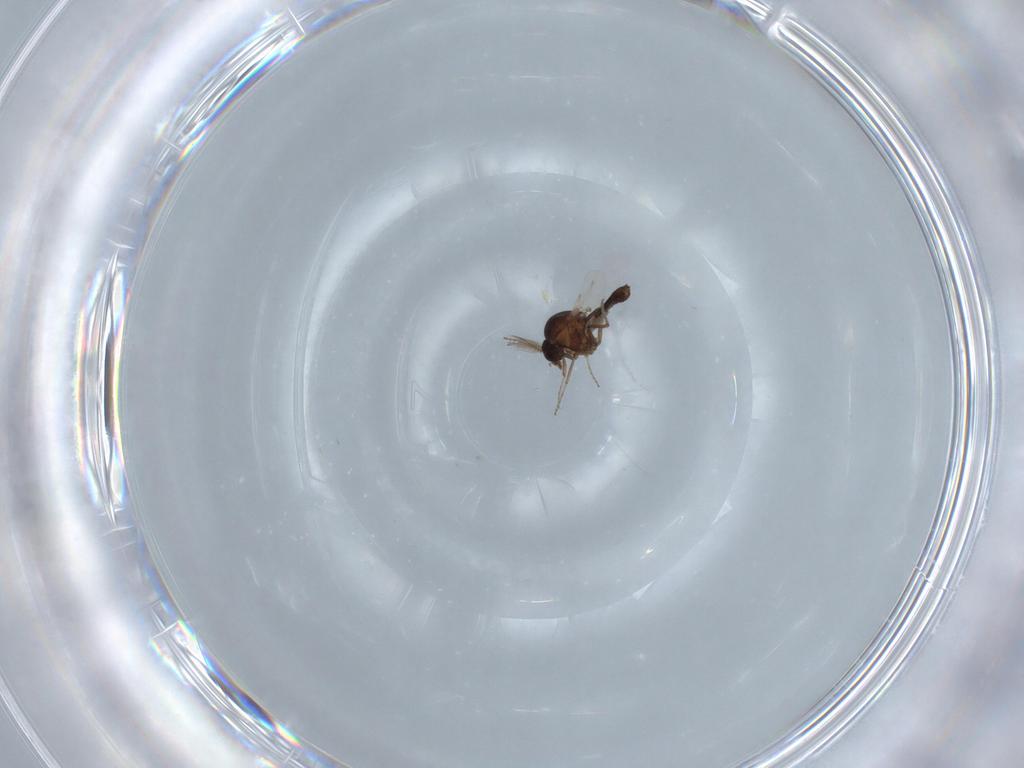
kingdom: Animalia
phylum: Arthropoda
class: Insecta
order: Diptera
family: Ceratopogonidae
